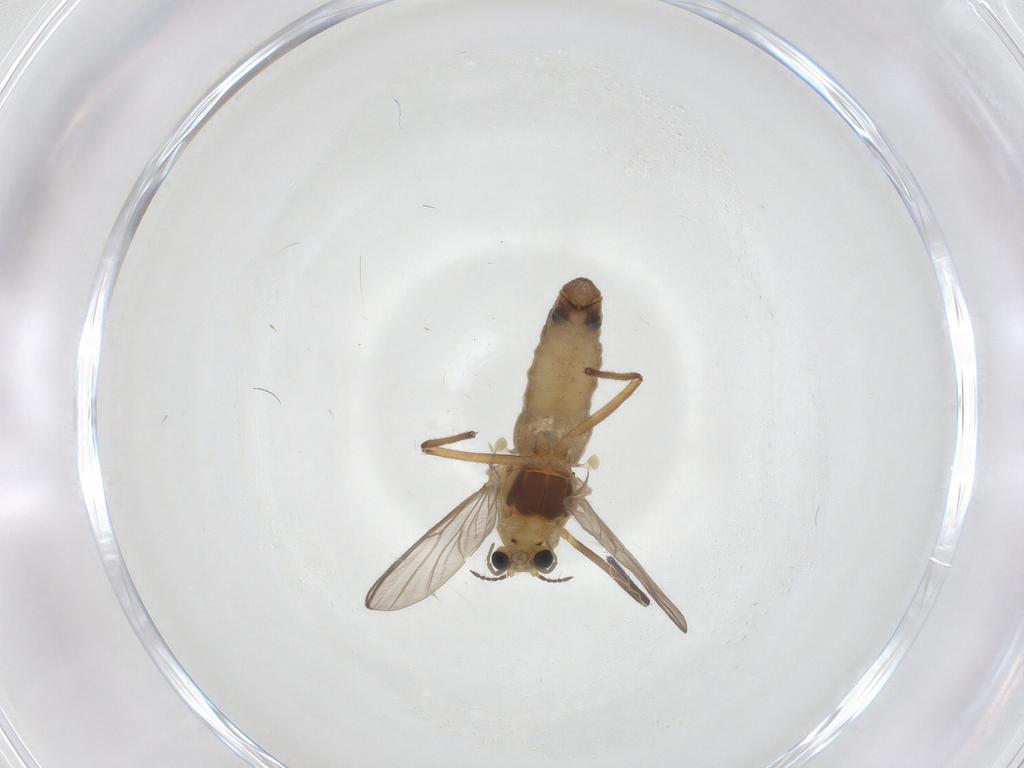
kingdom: Animalia
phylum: Arthropoda
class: Insecta
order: Diptera
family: Chironomidae
